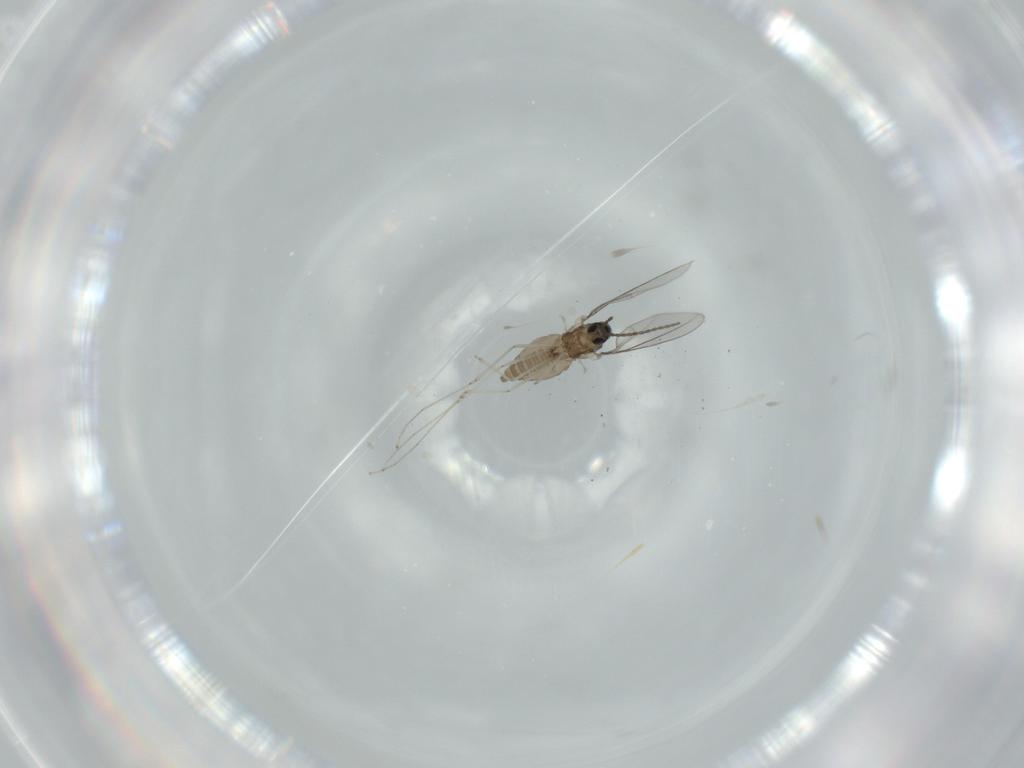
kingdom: Animalia
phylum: Arthropoda
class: Insecta
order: Diptera
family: Cecidomyiidae
